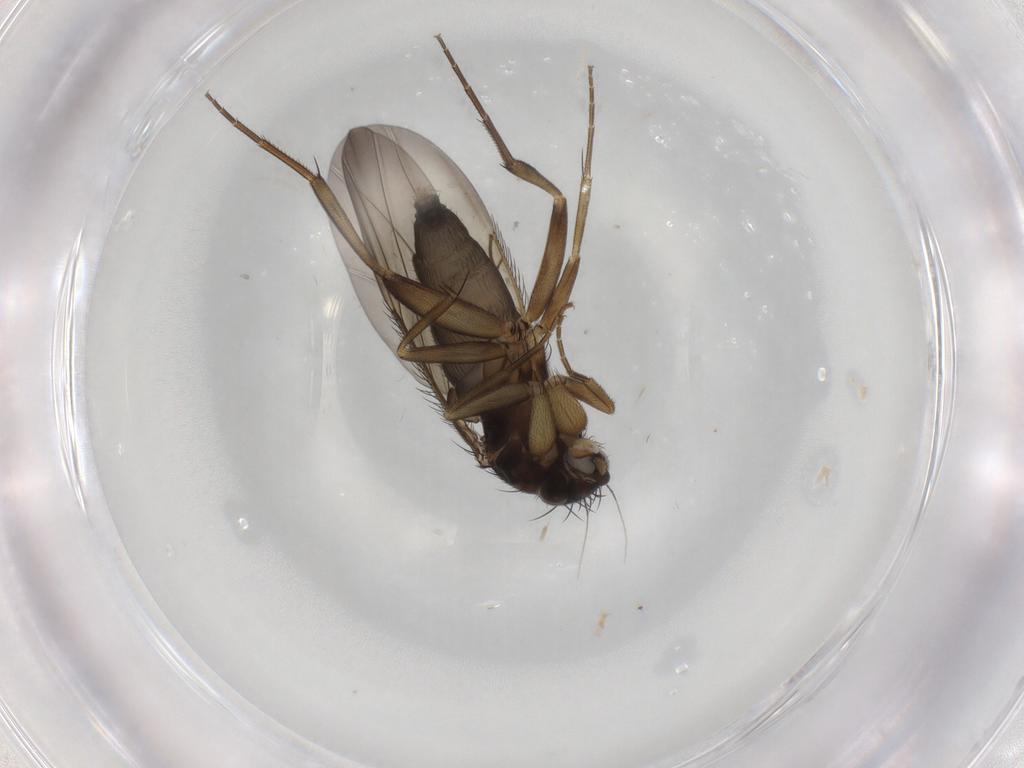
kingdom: Animalia
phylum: Arthropoda
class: Insecta
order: Diptera
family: Phoridae
